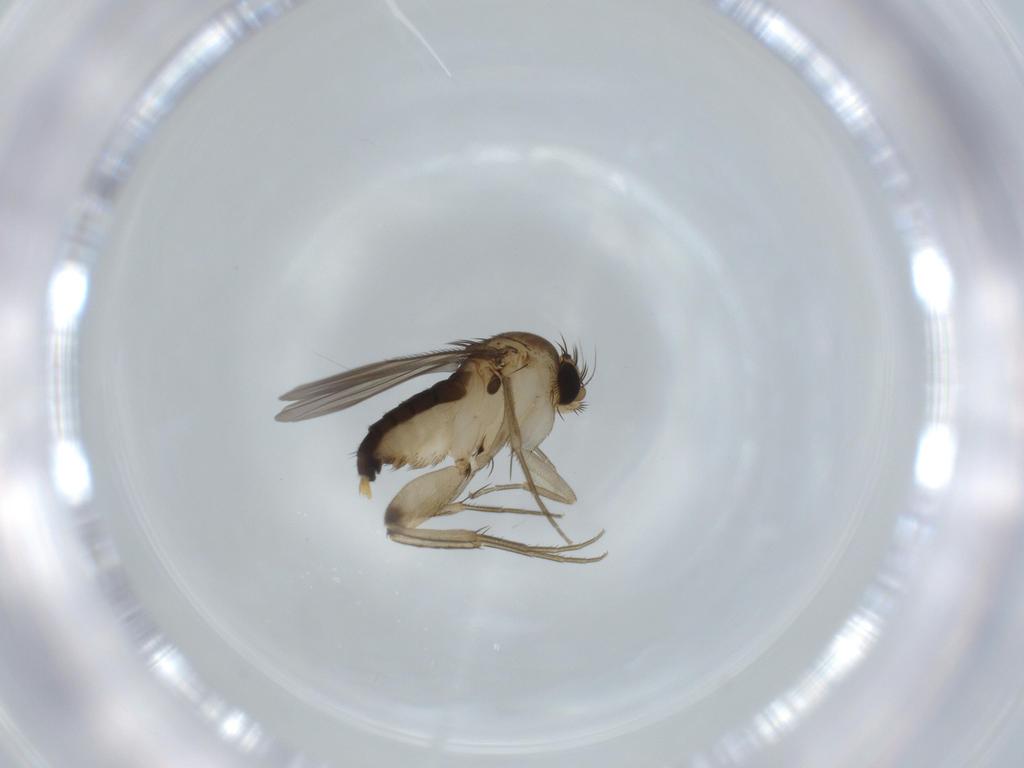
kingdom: Animalia
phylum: Arthropoda
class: Insecta
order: Diptera
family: Phoridae
